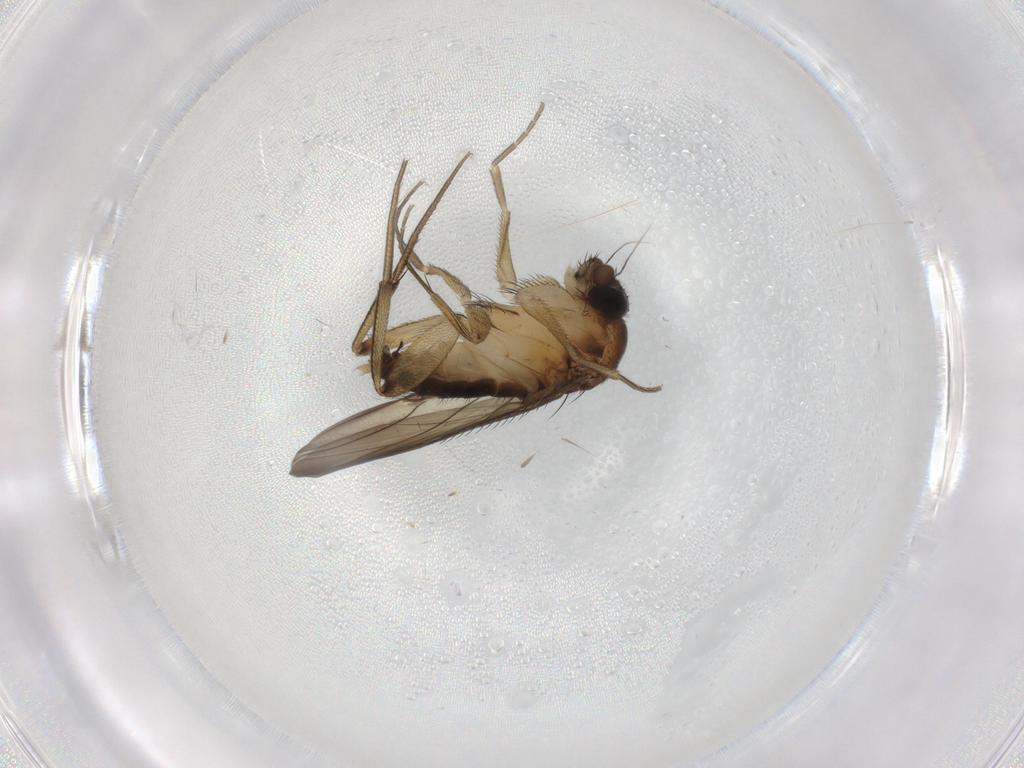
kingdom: Animalia
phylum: Arthropoda
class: Insecta
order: Diptera
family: Phoridae
